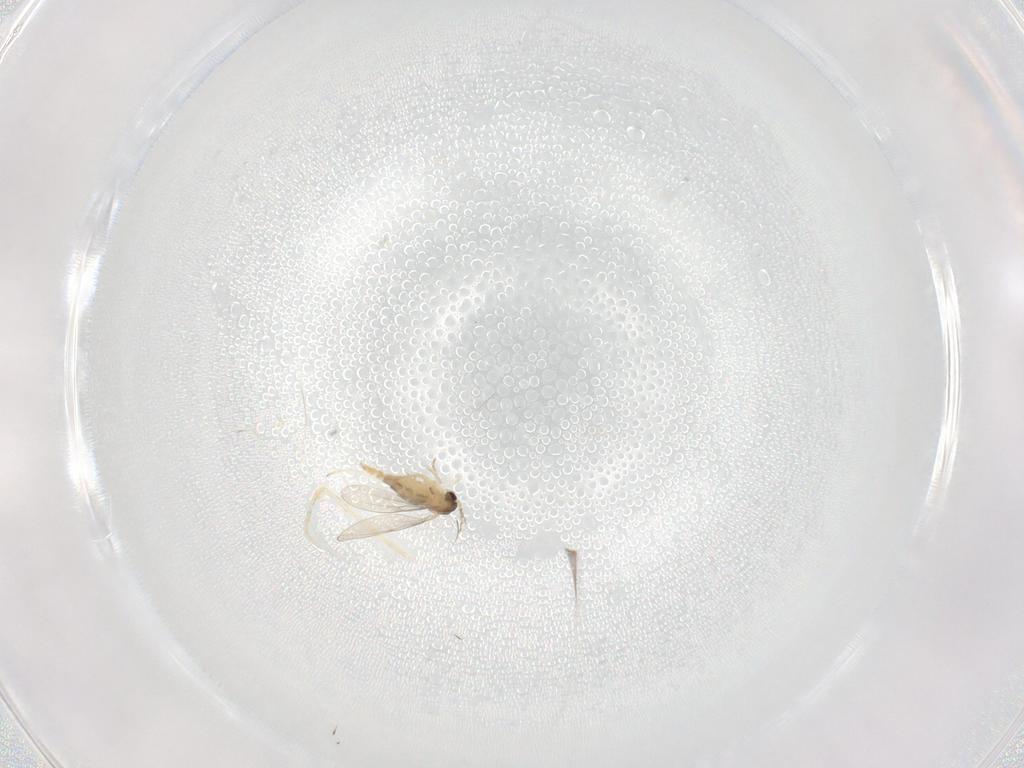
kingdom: Animalia
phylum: Arthropoda
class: Insecta
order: Diptera
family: Cecidomyiidae
